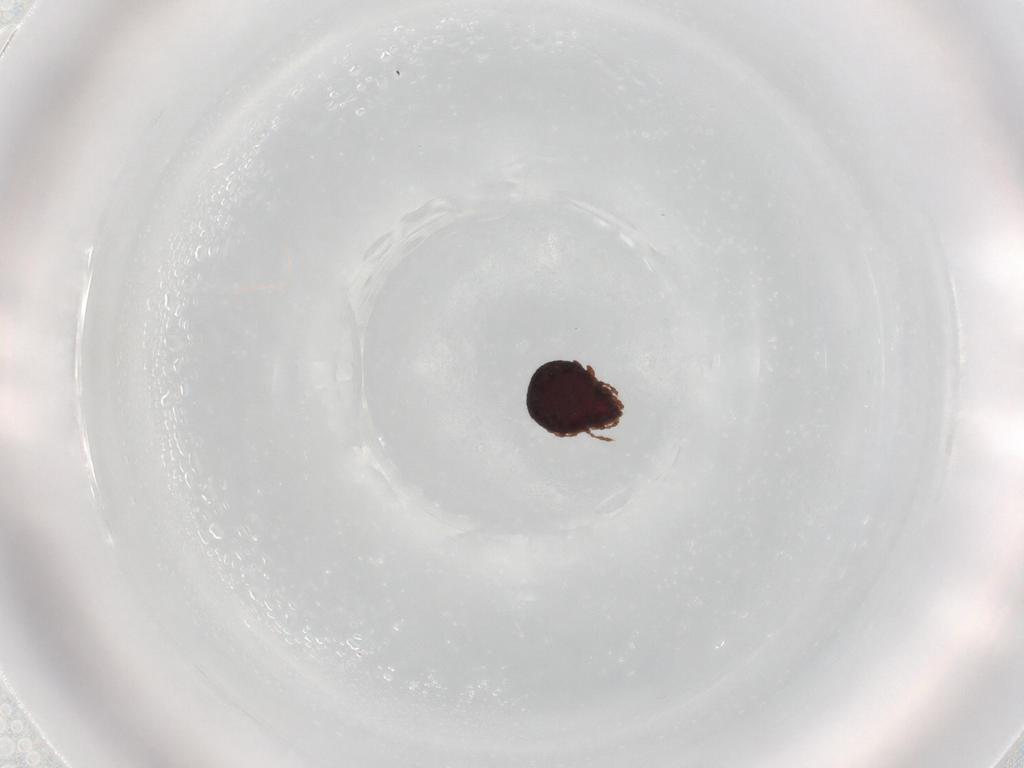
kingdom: Animalia
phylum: Arthropoda
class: Arachnida
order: Sarcoptiformes
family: Cepheusidae
